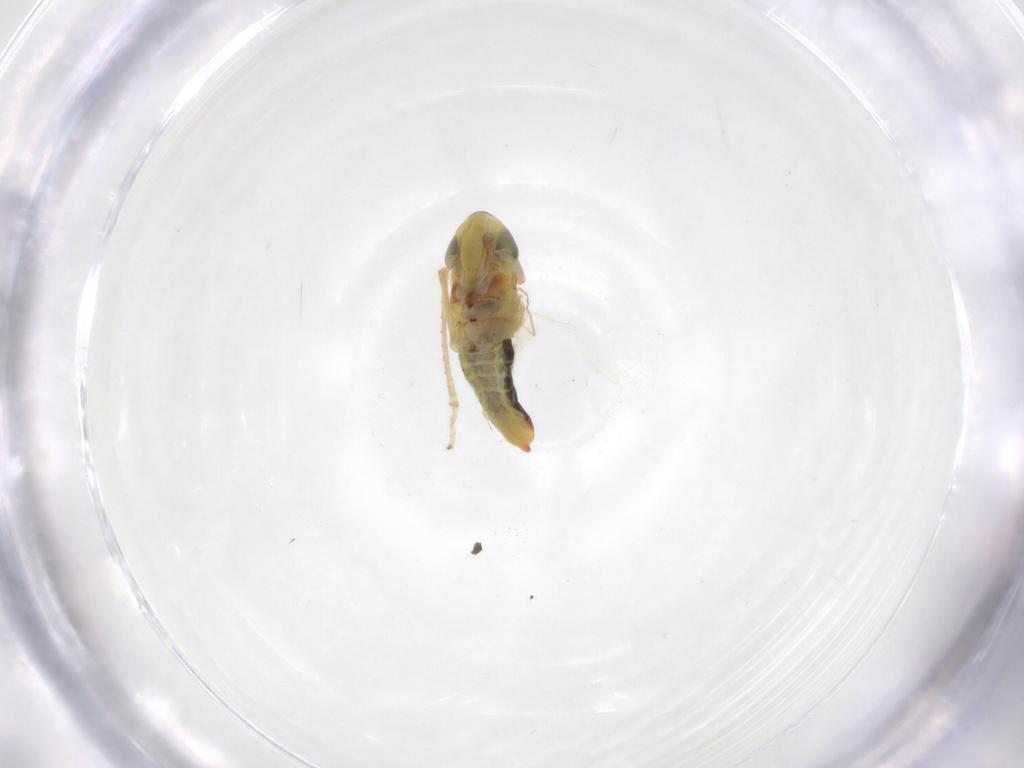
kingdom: Animalia
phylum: Arthropoda
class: Insecta
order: Hemiptera
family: Cicadellidae
